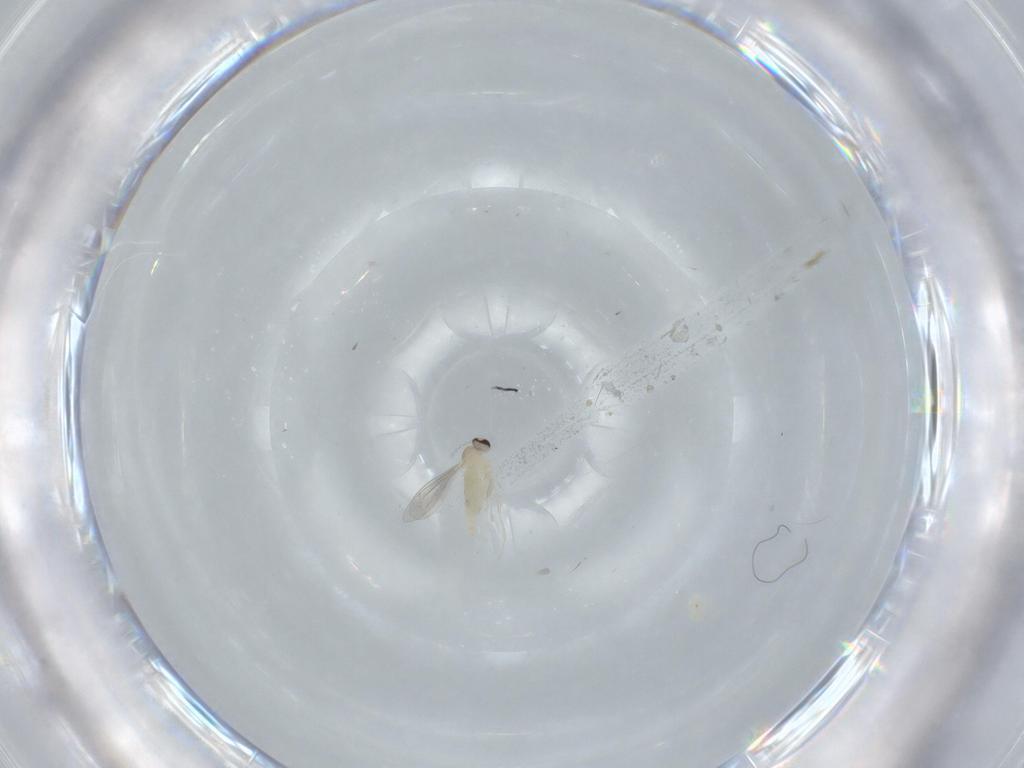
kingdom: Animalia
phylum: Arthropoda
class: Insecta
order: Diptera
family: Cecidomyiidae
